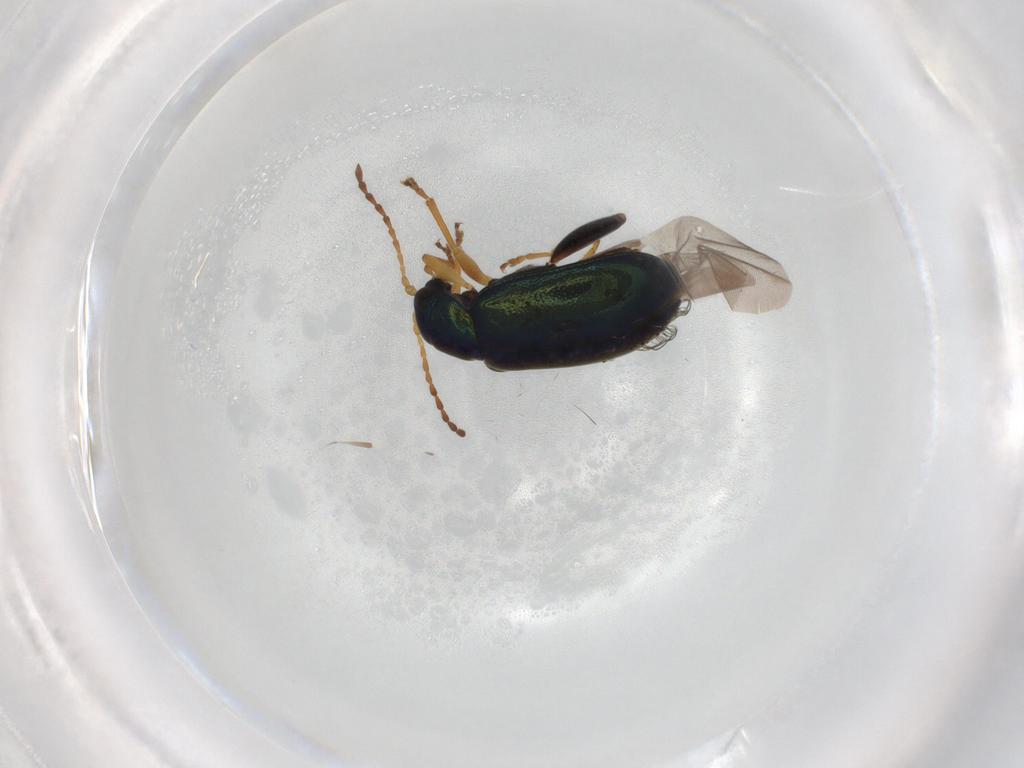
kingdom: Animalia
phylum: Arthropoda
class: Insecta
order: Coleoptera
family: Chrysomelidae
